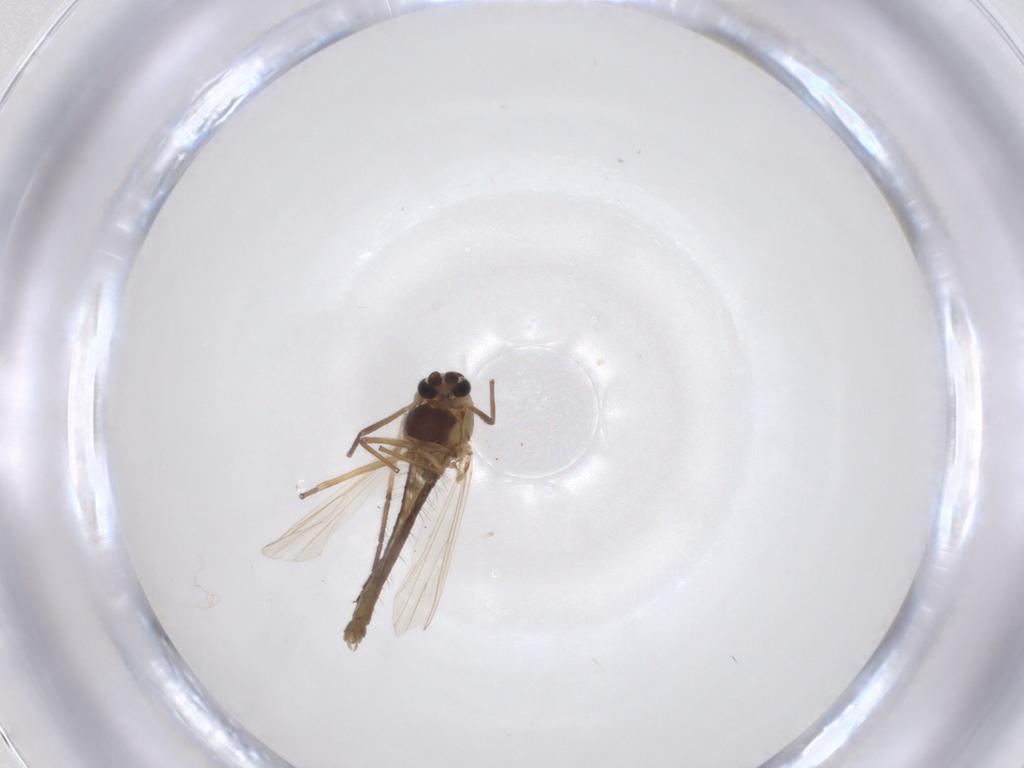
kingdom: Animalia
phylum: Arthropoda
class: Insecta
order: Diptera
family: Chironomidae
